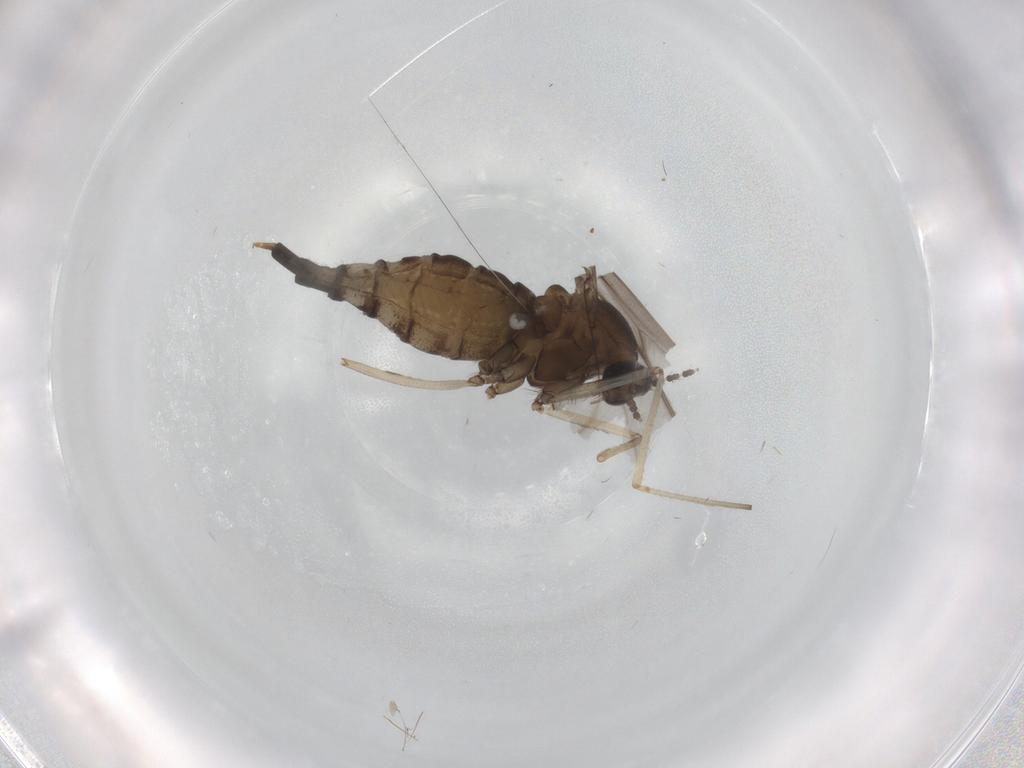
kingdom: Animalia
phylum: Arthropoda
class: Insecta
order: Diptera
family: Cecidomyiidae
